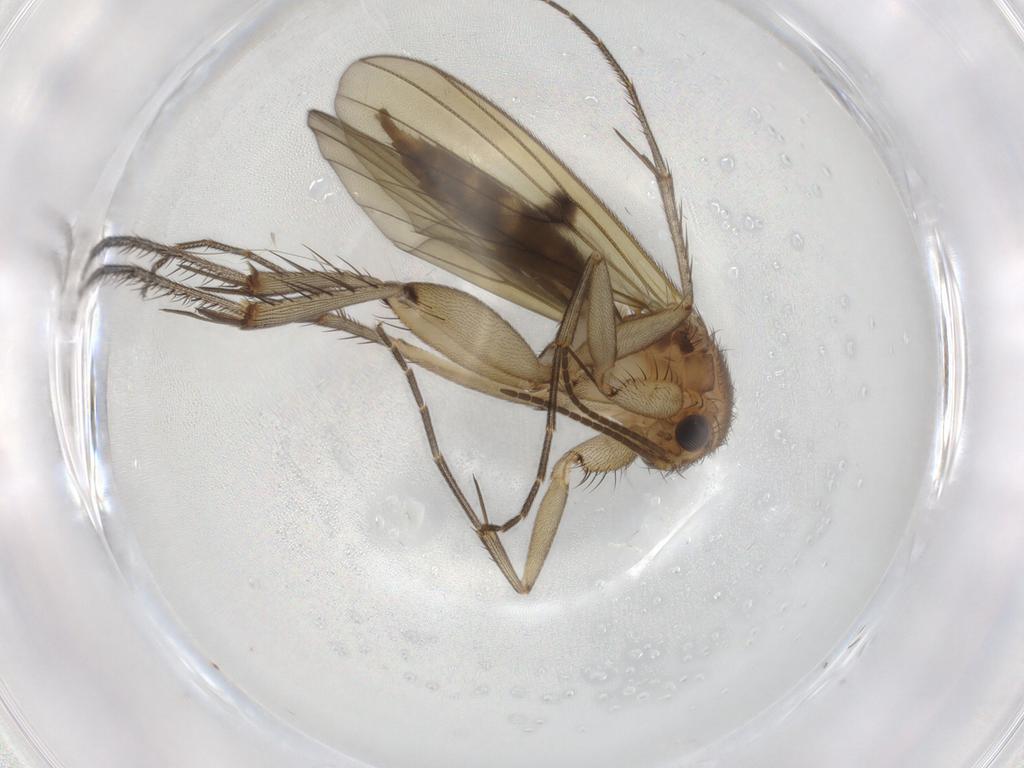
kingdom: Animalia
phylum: Arthropoda
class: Insecta
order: Diptera
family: Mycetophilidae
